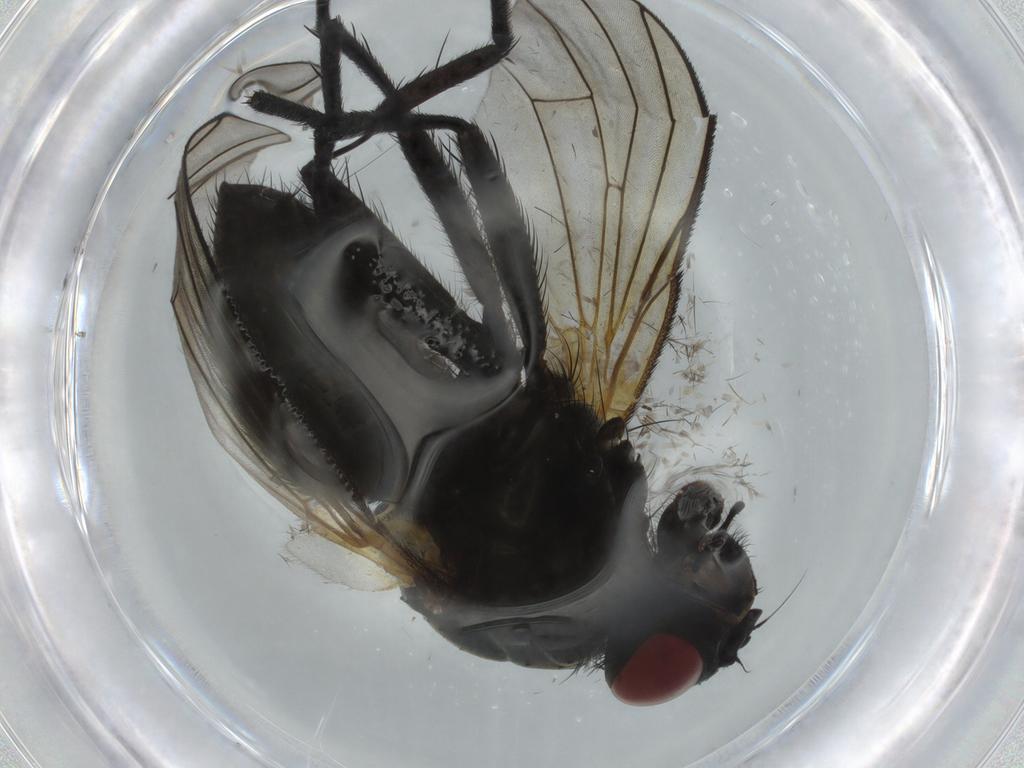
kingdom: Animalia
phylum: Arthropoda
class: Insecta
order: Diptera
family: Muscidae
